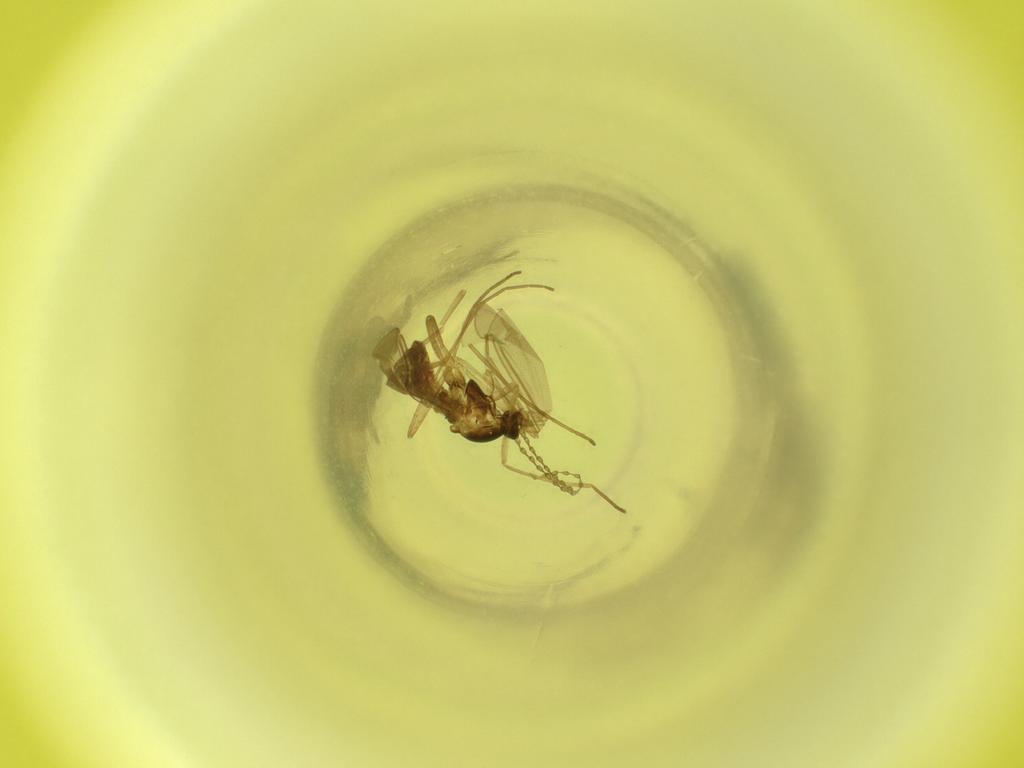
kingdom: Animalia
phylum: Arthropoda
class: Insecta
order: Diptera
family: Cecidomyiidae
